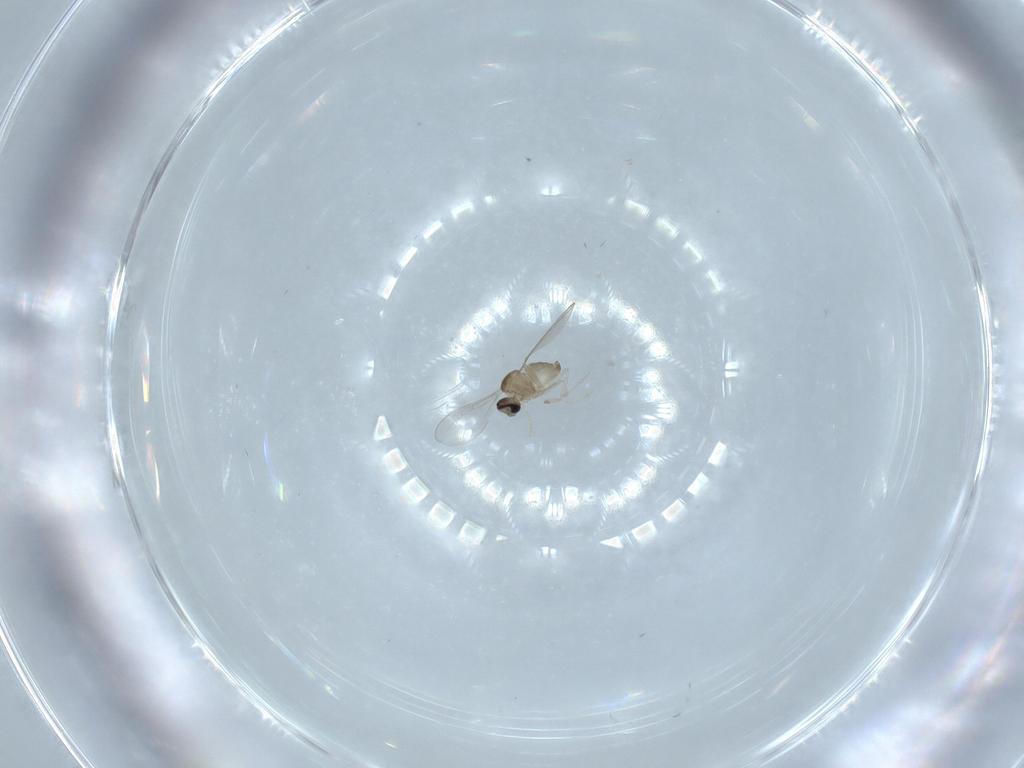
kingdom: Animalia
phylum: Arthropoda
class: Insecta
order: Diptera
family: Cecidomyiidae
